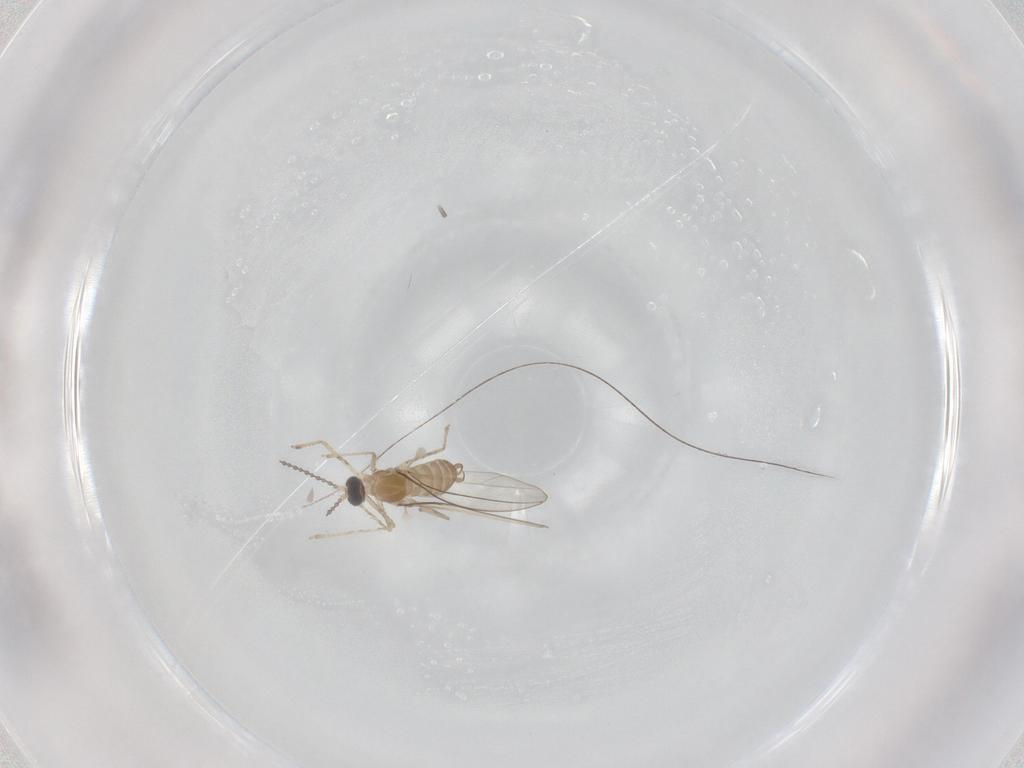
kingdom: Animalia
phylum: Arthropoda
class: Insecta
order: Diptera
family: Cecidomyiidae
